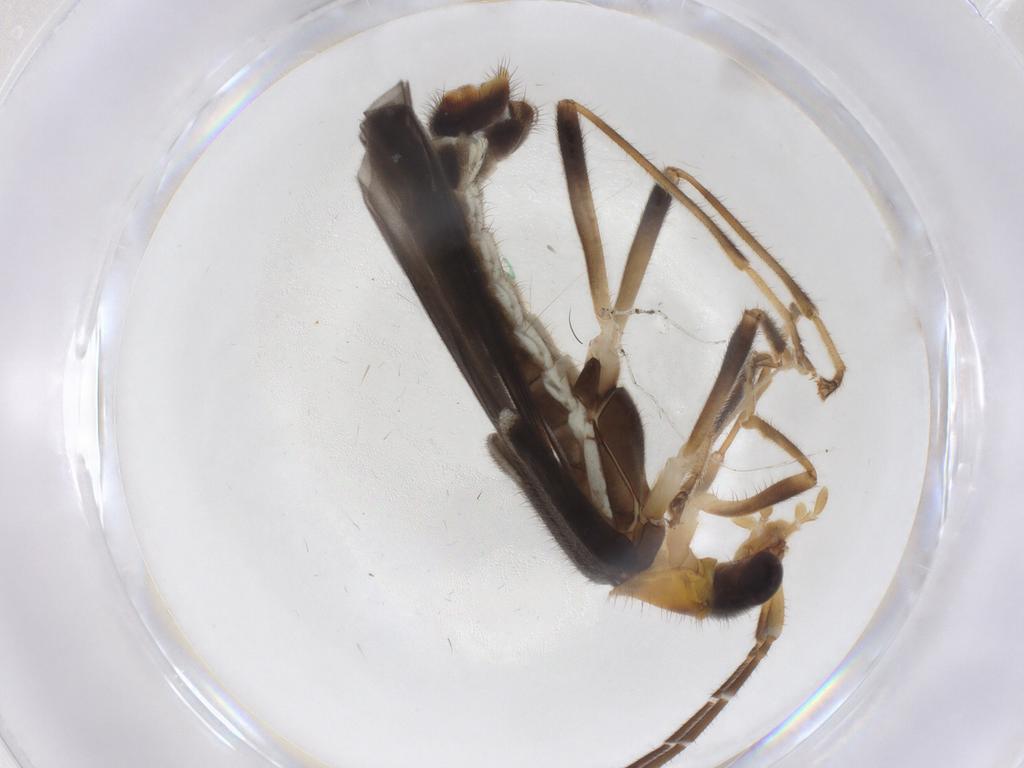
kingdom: Animalia
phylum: Arthropoda
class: Insecta
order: Coleoptera
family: Cantharidae
